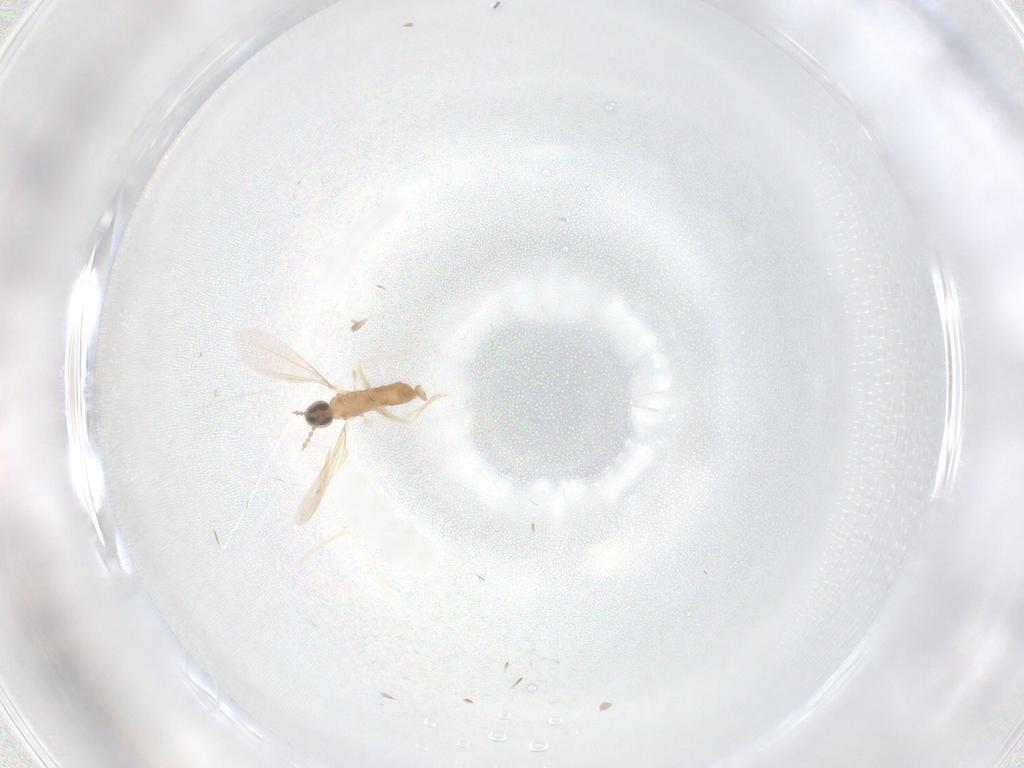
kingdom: Animalia
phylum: Arthropoda
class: Insecta
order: Diptera
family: Cecidomyiidae
